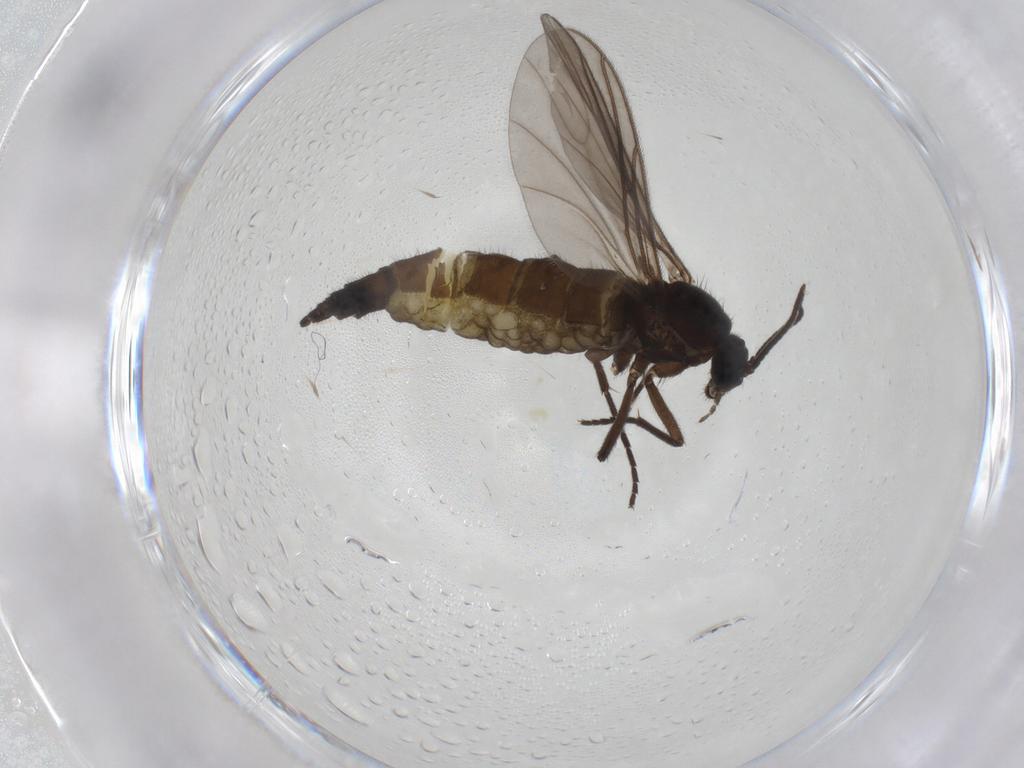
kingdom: Animalia
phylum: Arthropoda
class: Insecta
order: Diptera
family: Sciaridae
